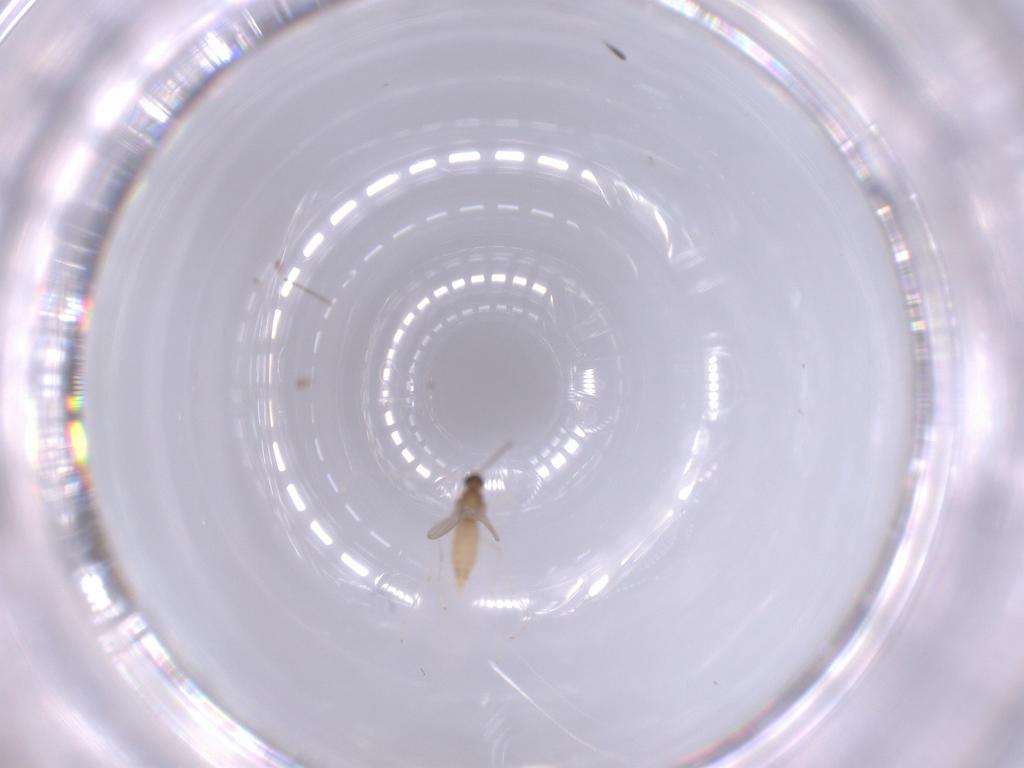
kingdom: Animalia
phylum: Arthropoda
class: Insecta
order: Diptera
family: Cecidomyiidae
